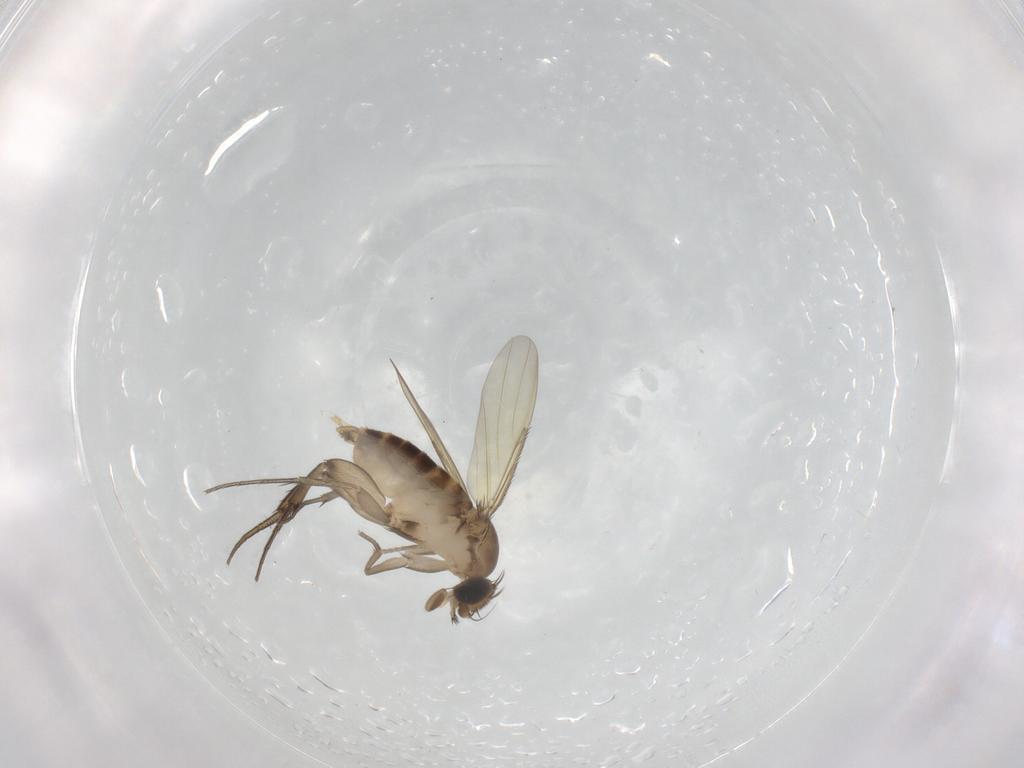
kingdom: Animalia
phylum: Arthropoda
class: Insecta
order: Diptera
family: Phoridae
